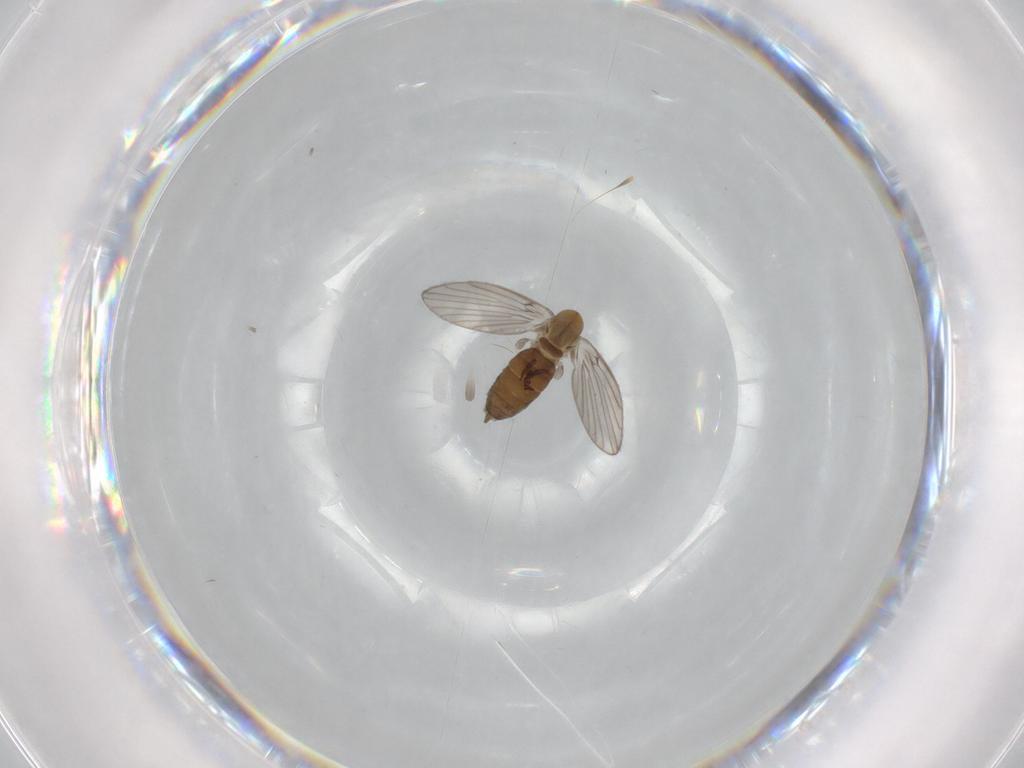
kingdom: Animalia
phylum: Arthropoda
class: Insecta
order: Diptera
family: Psychodidae
